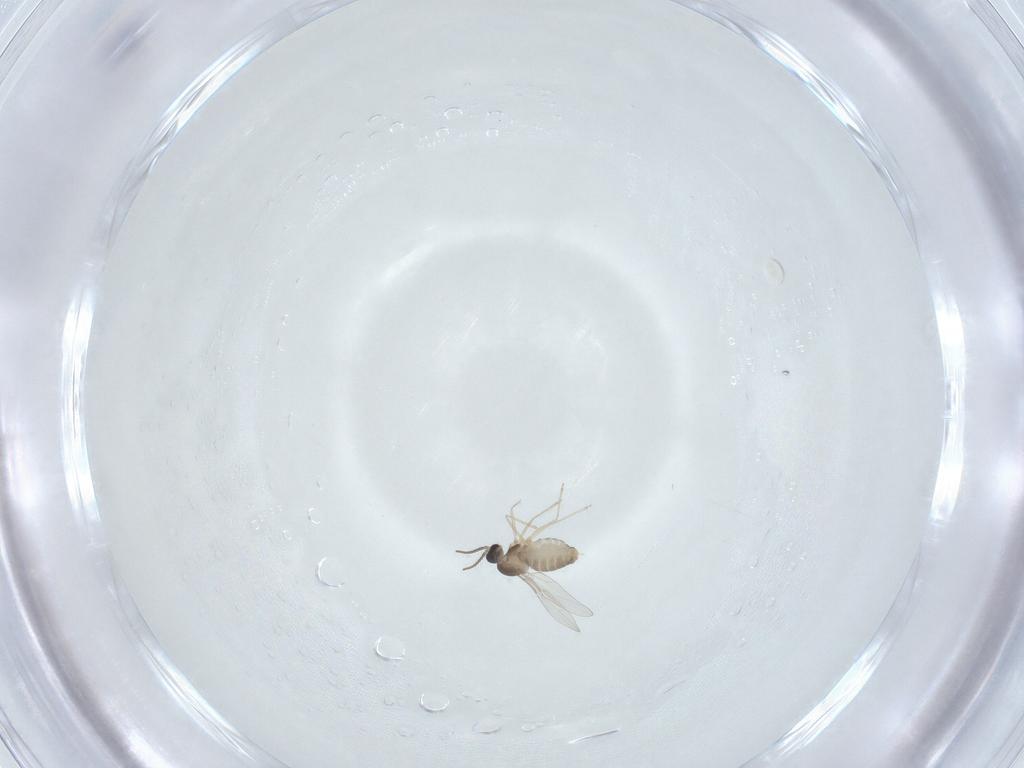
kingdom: Animalia
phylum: Arthropoda
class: Insecta
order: Diptera
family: Cecidomyiidae
